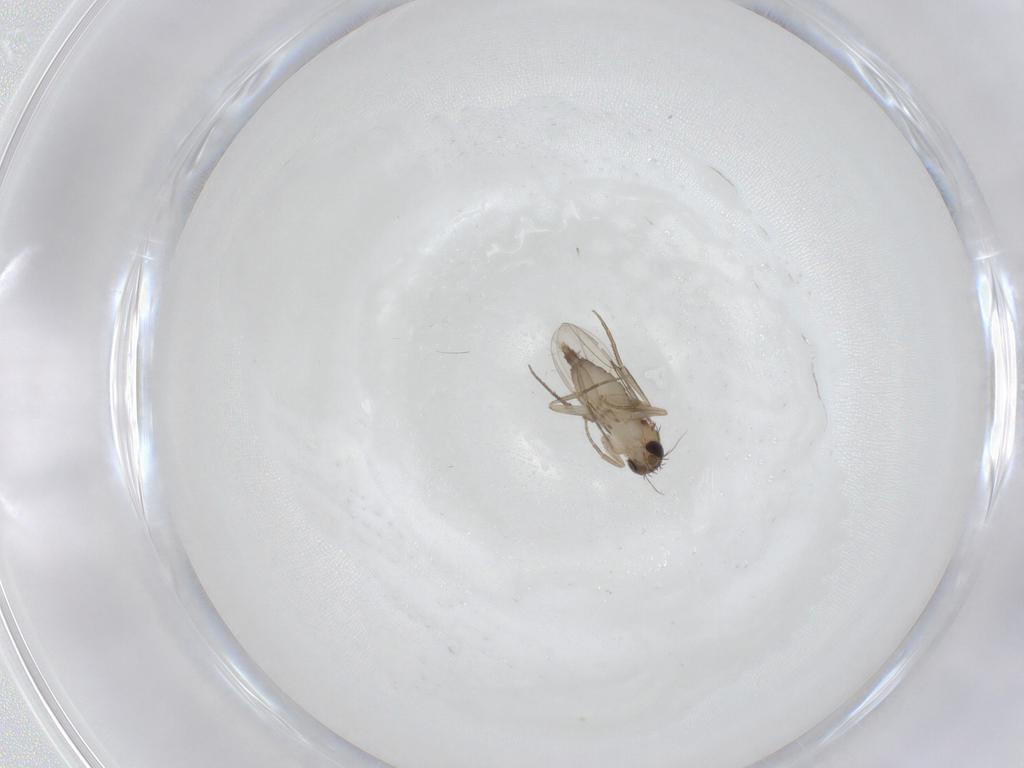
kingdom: Animalia
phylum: Arthropoda
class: Insecta
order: Diptera
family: Phoridae
